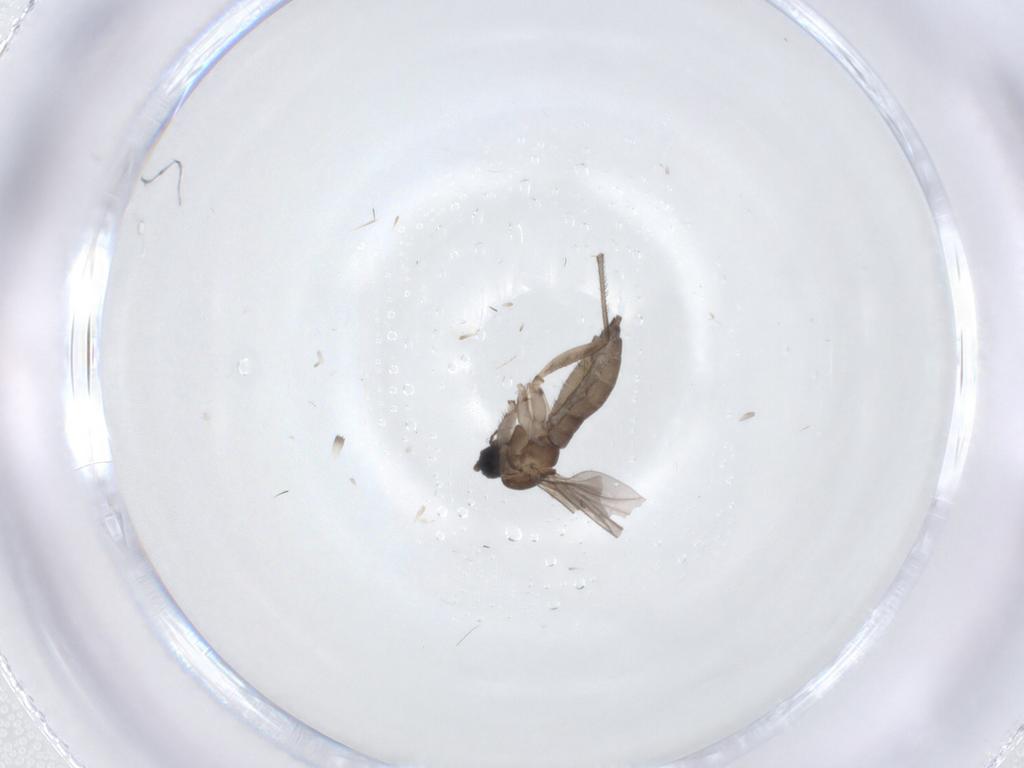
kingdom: Animalia
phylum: Arthropoda
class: Insecta
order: Diptera
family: Sciaridae
